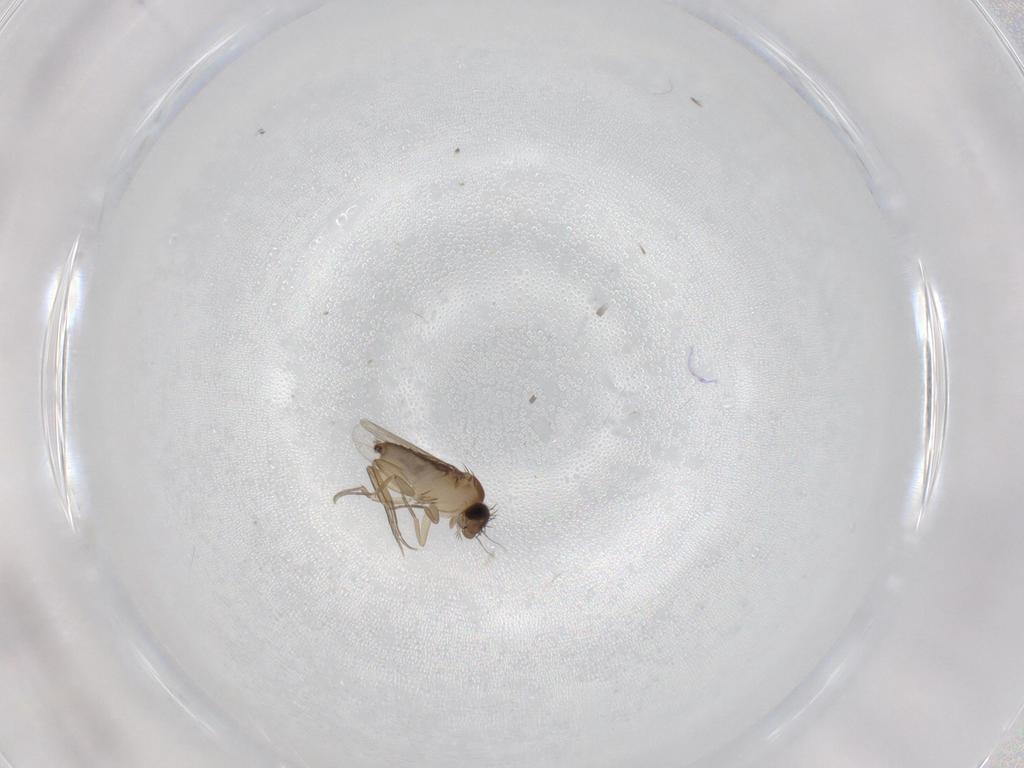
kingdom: Animalia
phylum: Arthropoda
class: Insecta
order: Diptera
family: Phoridae
